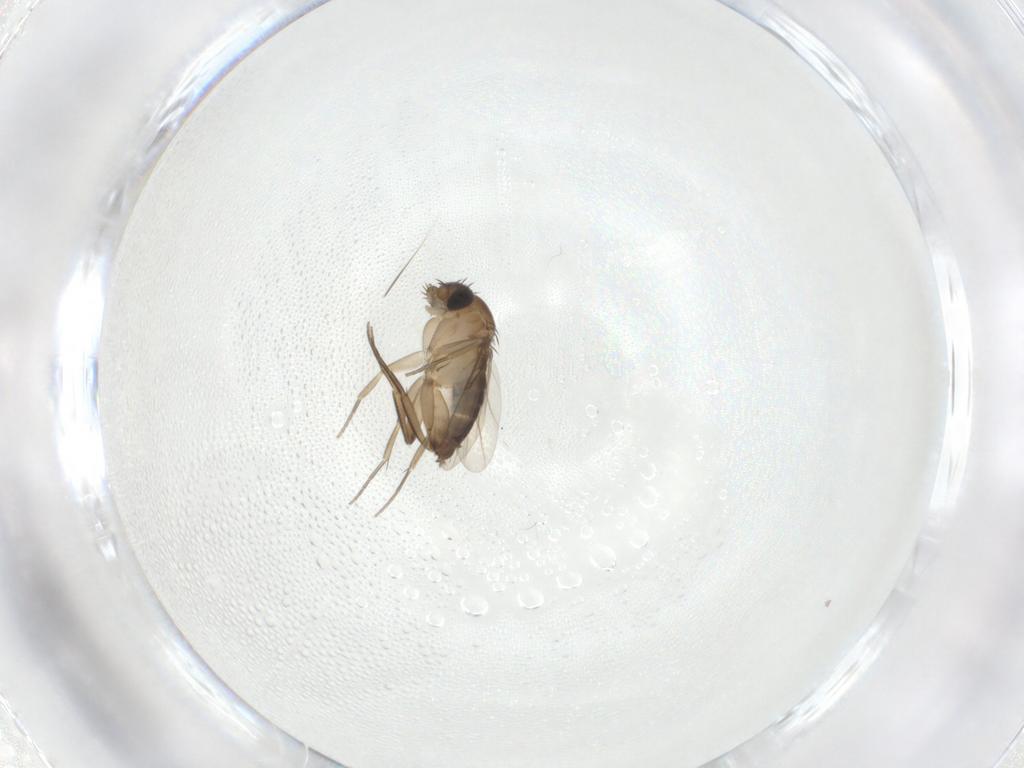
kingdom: Animalia
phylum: Arthropoda
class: Insecta
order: Diptera
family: Phoridae
